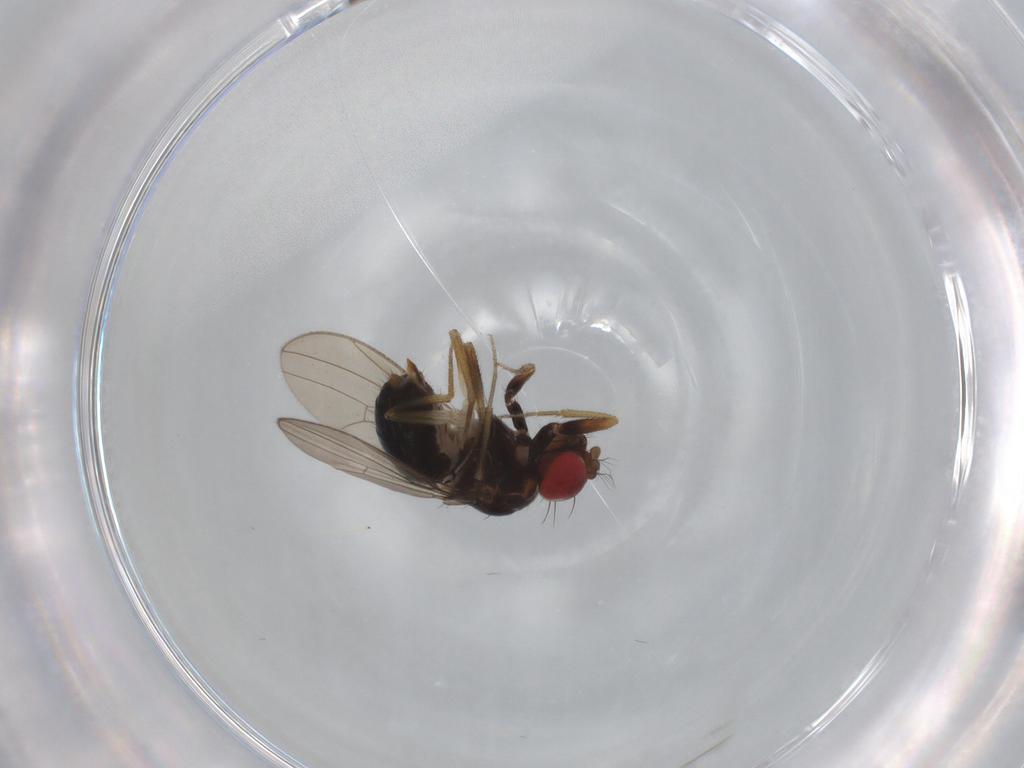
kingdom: Animalia
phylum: Arthropoda
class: Insecta
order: Diptera
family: Drosophilidae
